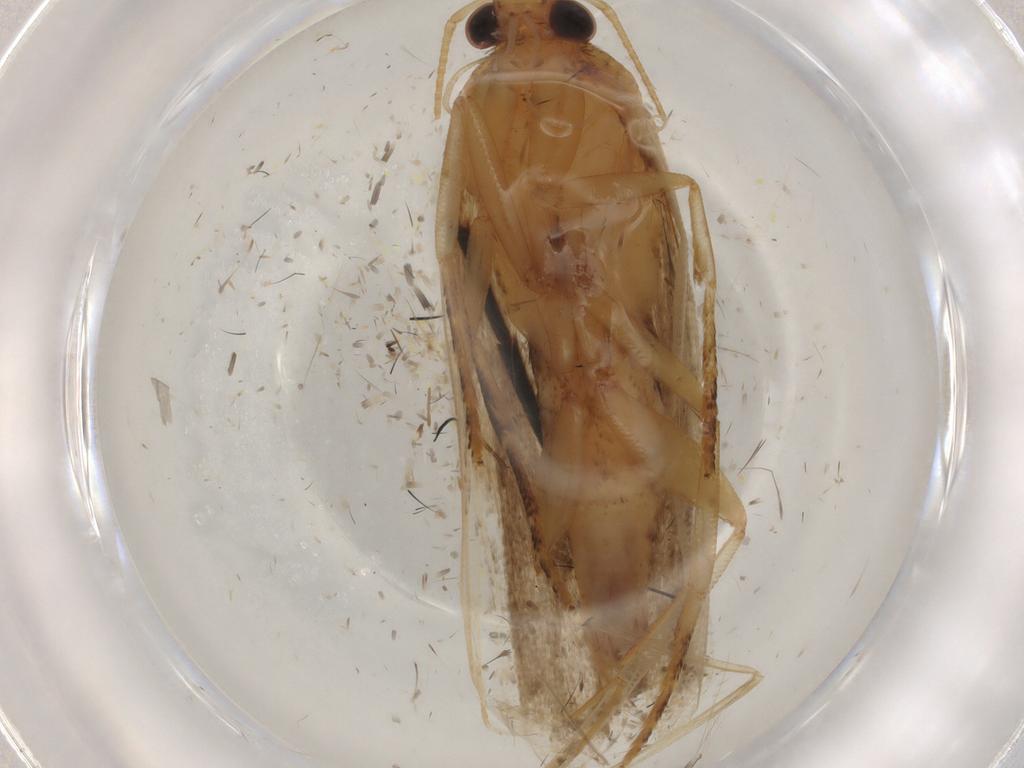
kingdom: Animalia
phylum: Arthropoda
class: Insecta
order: Lepidoptera
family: Gelechiidae
